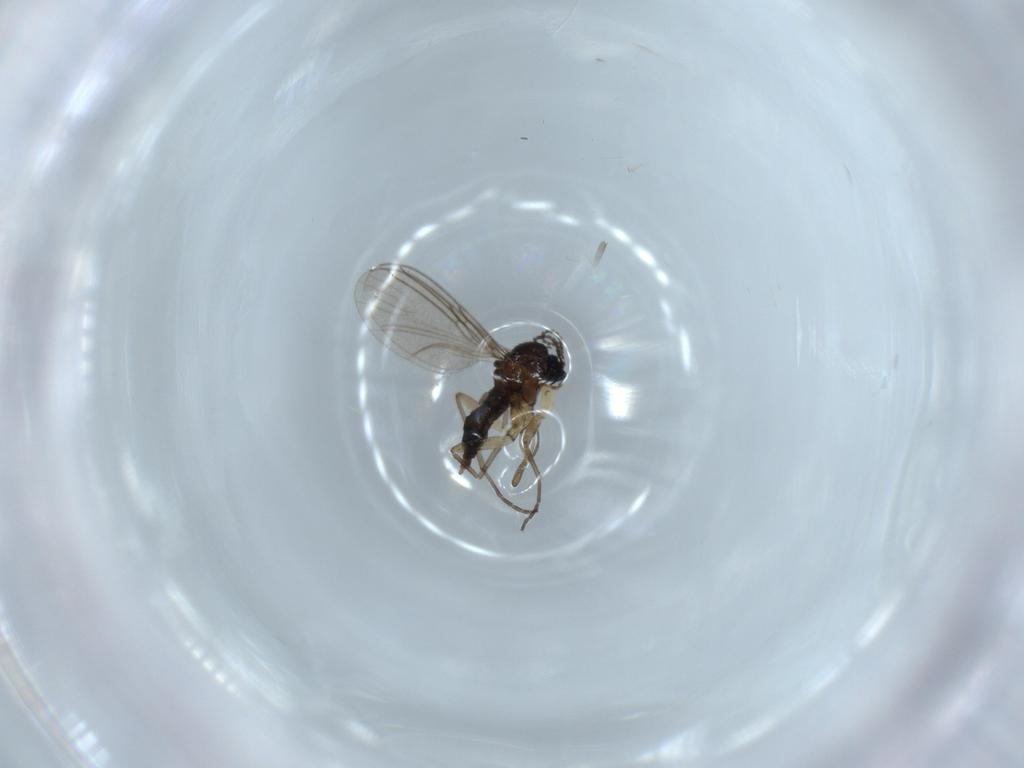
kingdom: Animalia
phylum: Arthropoda
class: Insecta
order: Diptera
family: Sciaridae
